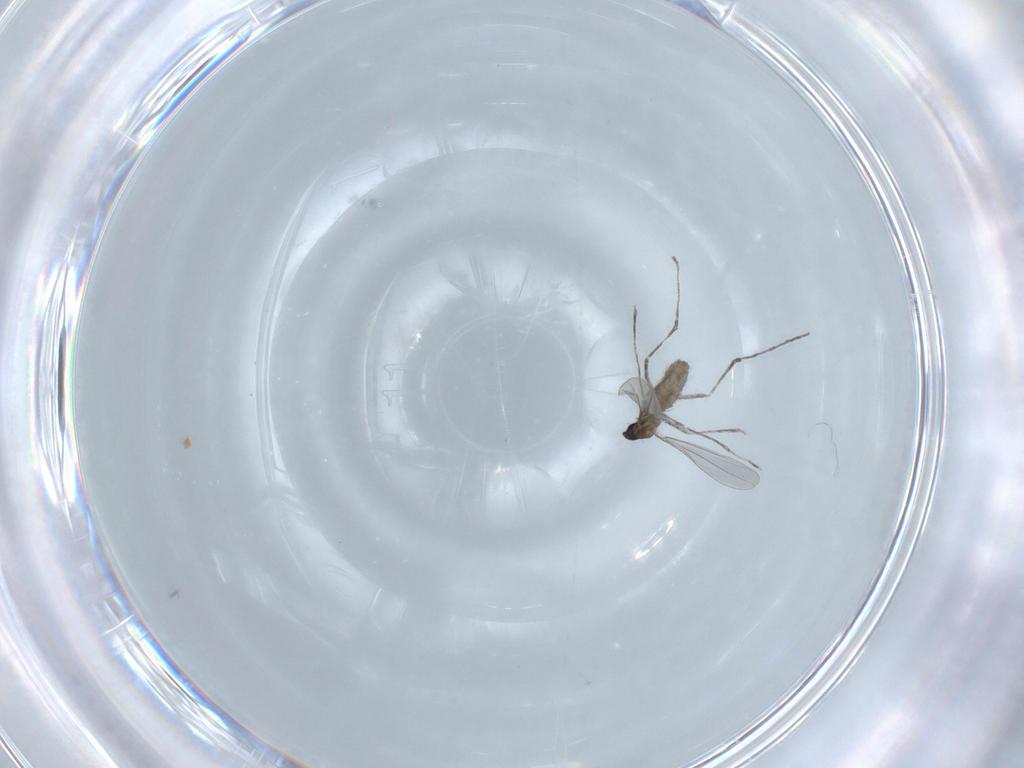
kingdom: Animalia
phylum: Arthropoda
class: Insecta
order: Diptera
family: Cecidomyiidae
